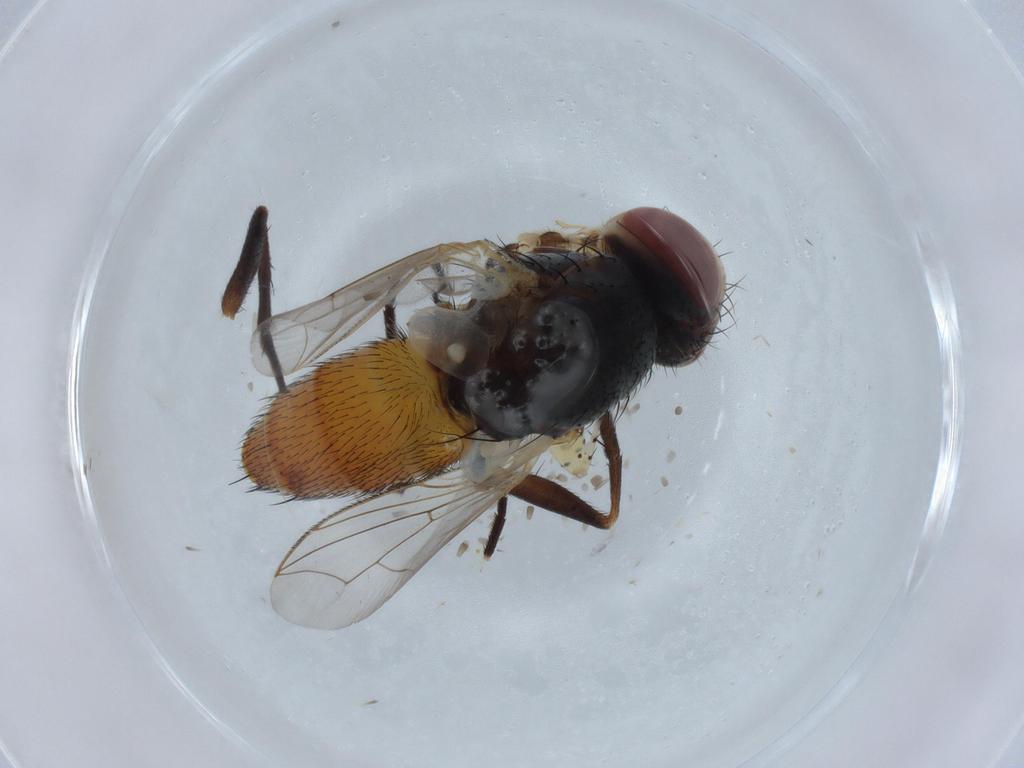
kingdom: Animalia
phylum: Arthropoda
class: Insecta
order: Diptera
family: Sarcophagidae
